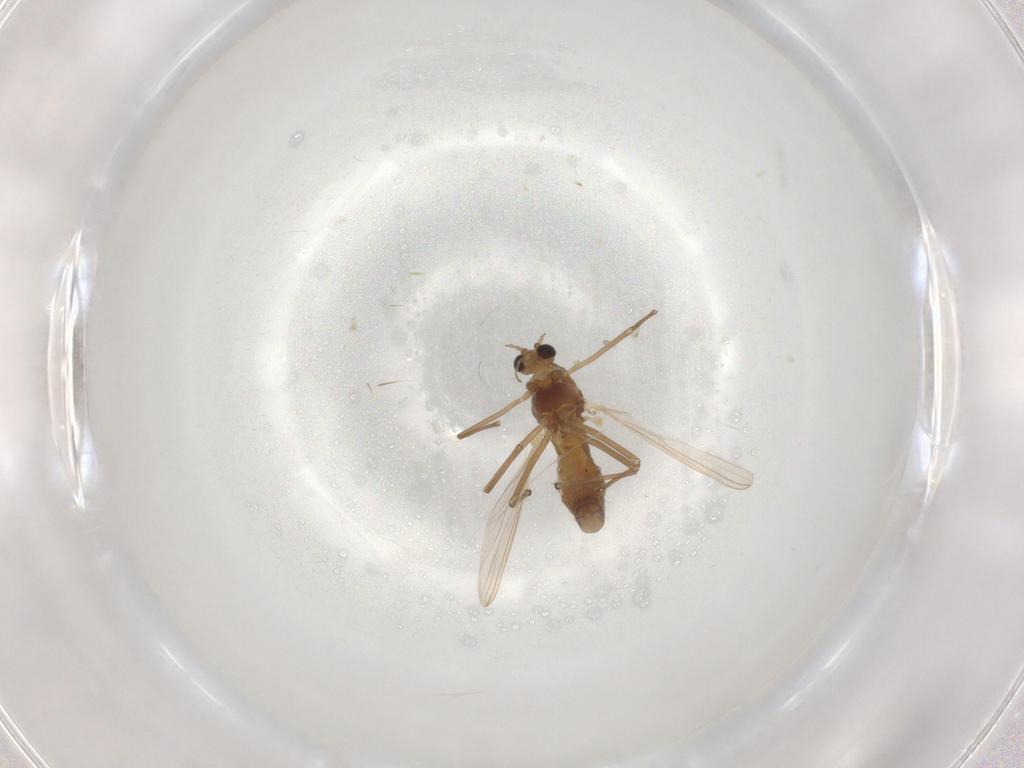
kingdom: Animalia
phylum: Arthropoda
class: Insecta
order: Diptera
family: Chironomidae
